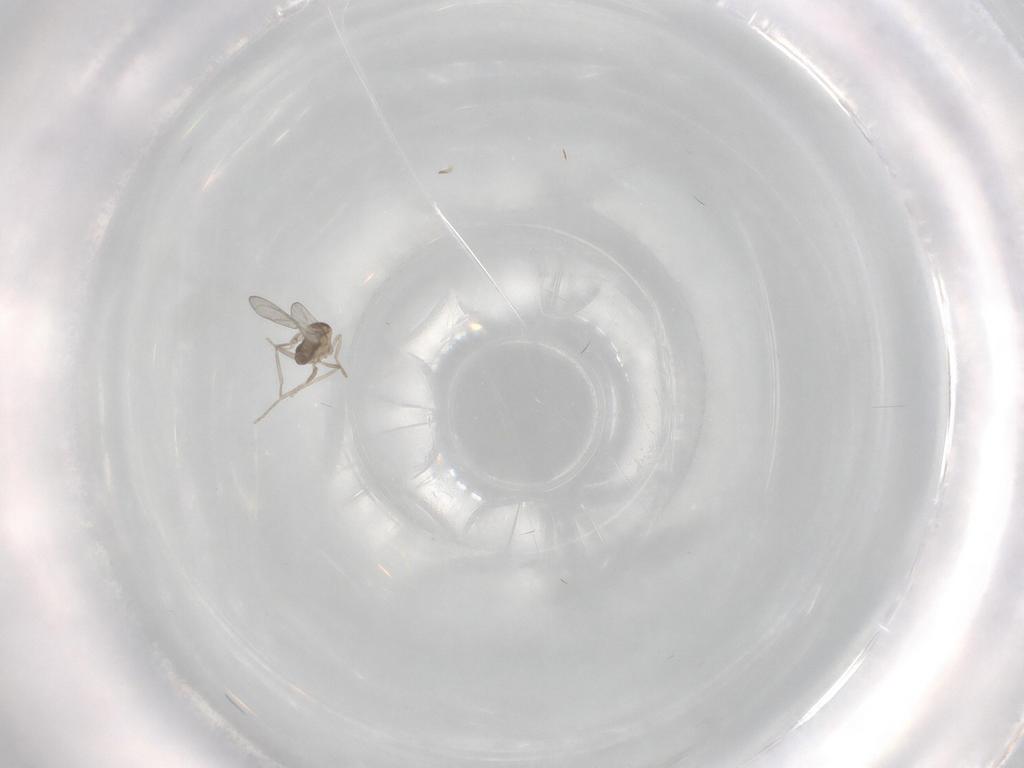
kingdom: Animalia
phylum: Arthropoda
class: Insecta
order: Diptera
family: Cecidomyiidae
